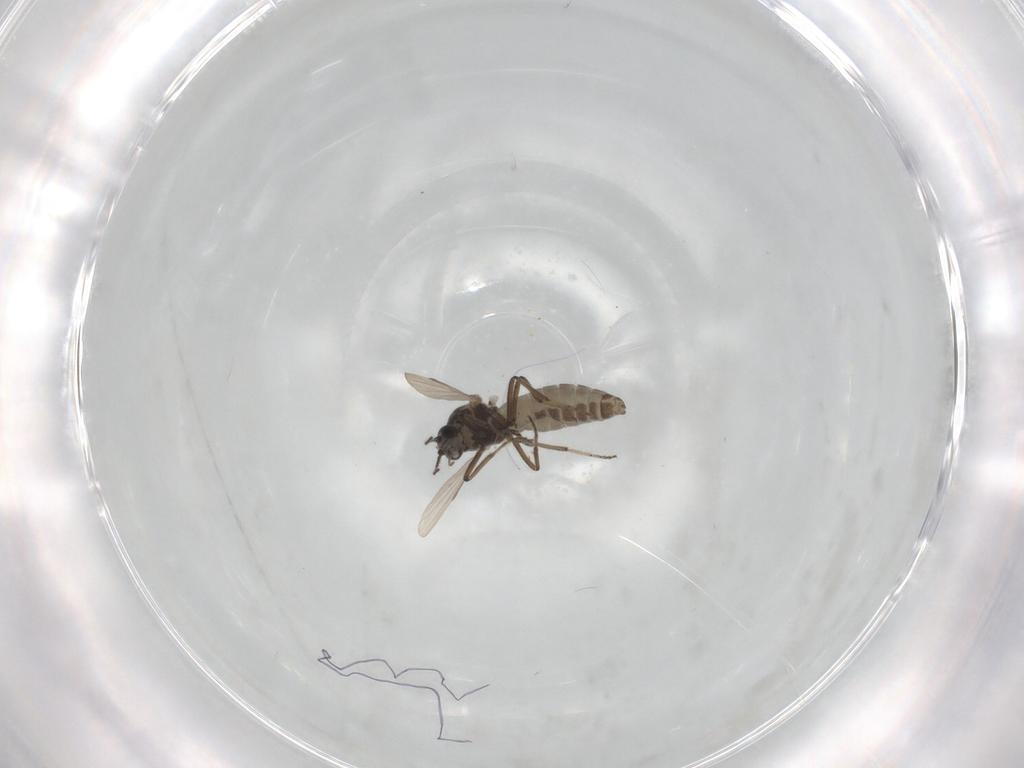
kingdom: Animalia
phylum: Arthropoda
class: Insecta
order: Diptera
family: Ceratopogonidae
